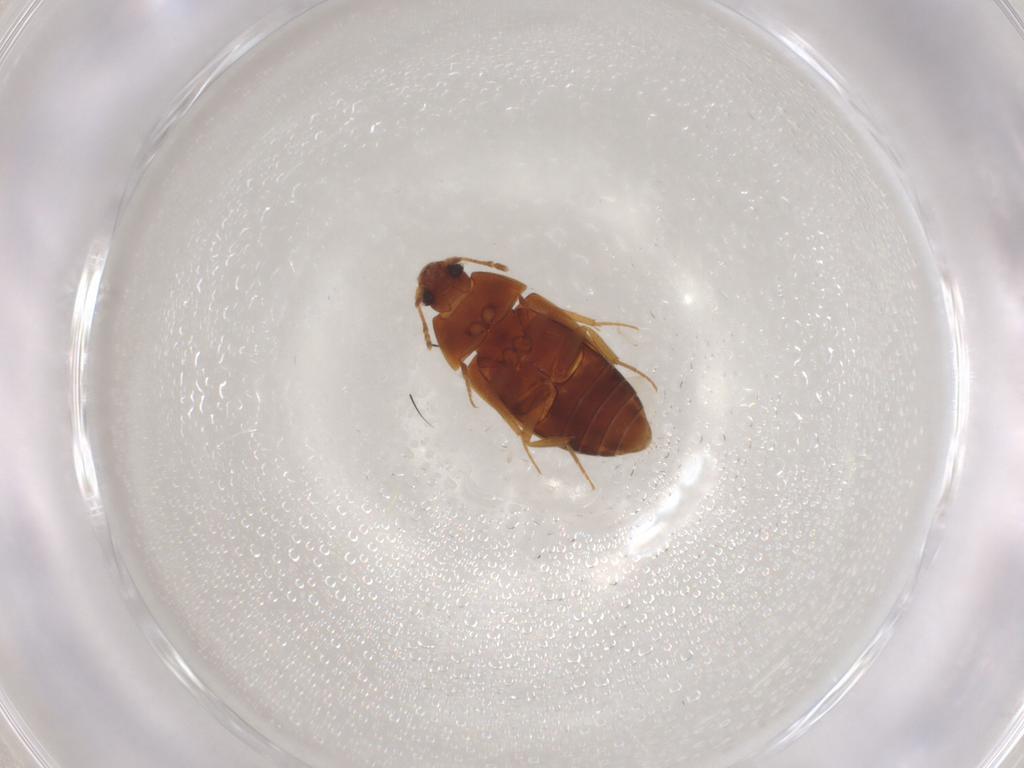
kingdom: Animalia
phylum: Arthropoda
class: Insecta
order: Coleoptera
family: Mycetophagidae
